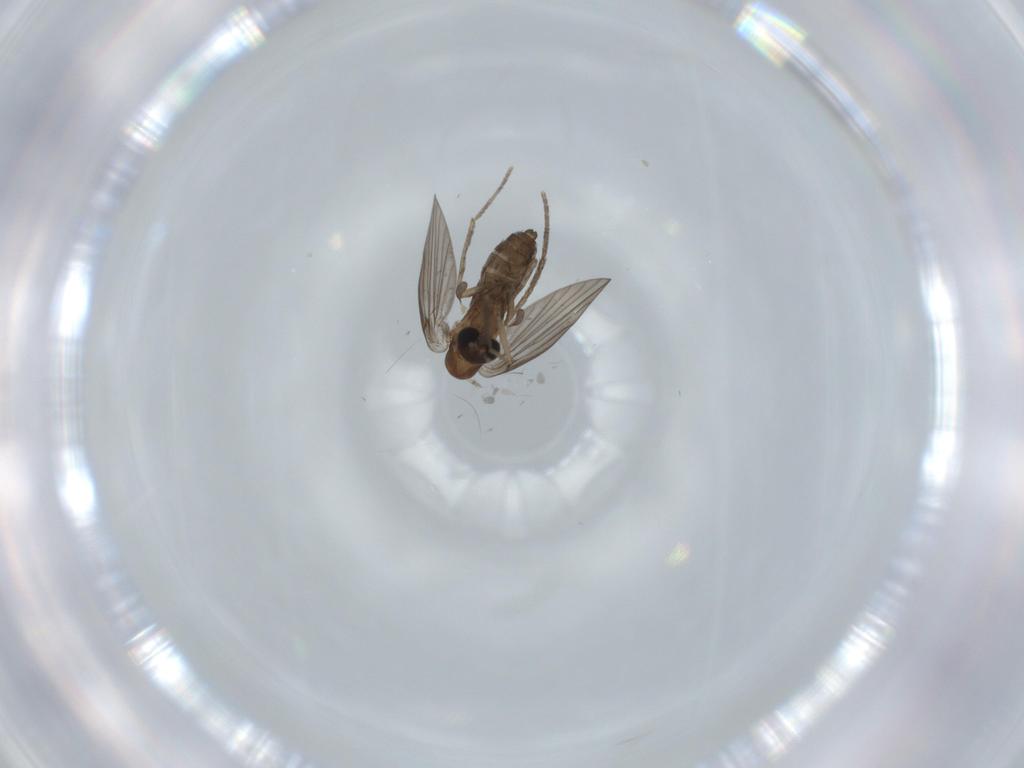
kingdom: Animalia
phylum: Arthropoda
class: Insecta
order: Diptera
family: Psychodidae
